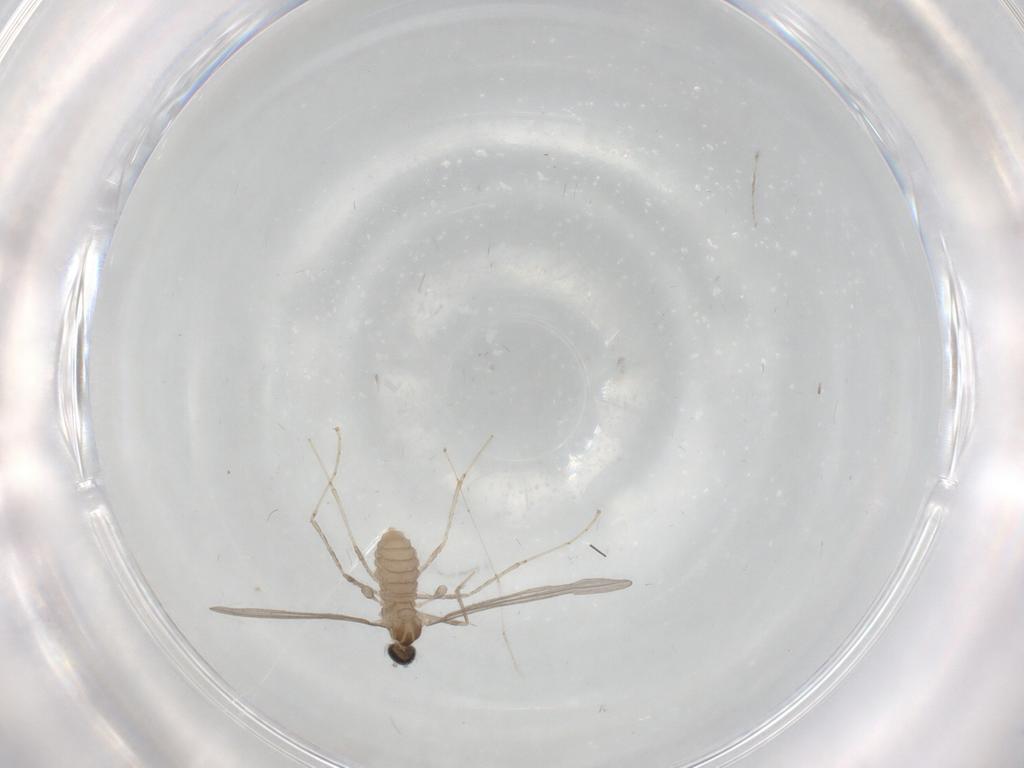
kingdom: Animalia
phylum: Arthropoda
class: Insecta
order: Diptera
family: Cecidomyiidae
